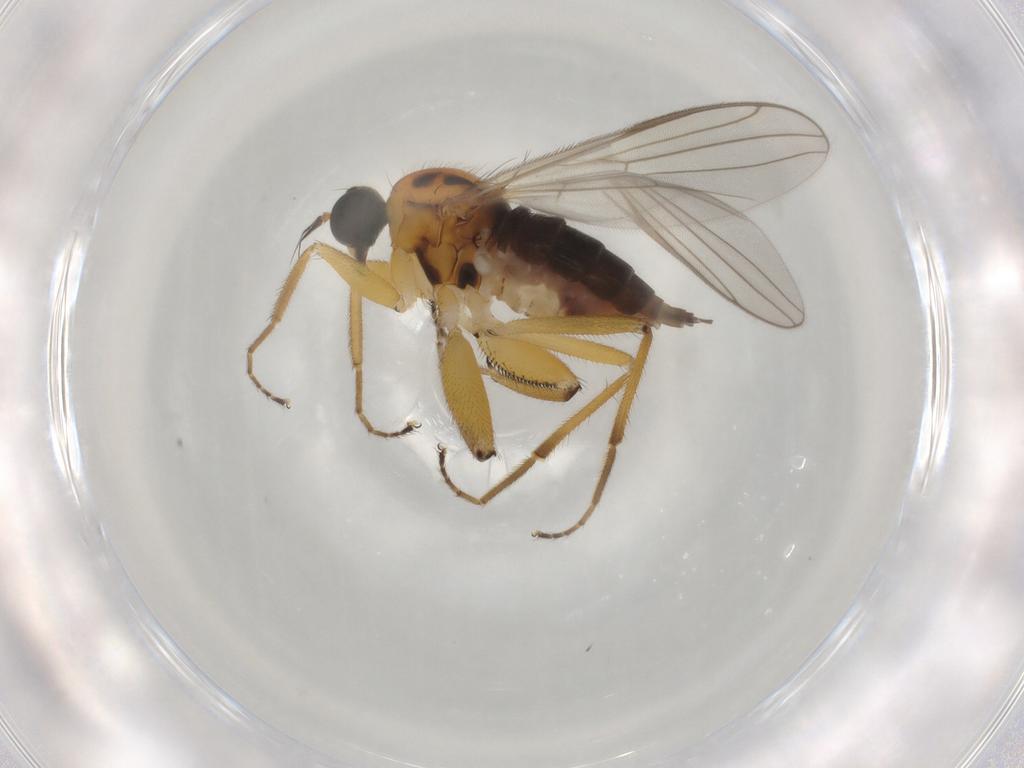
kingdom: Animalia
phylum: Arthropoda
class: Insecta
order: Diptera
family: Hybotidae
